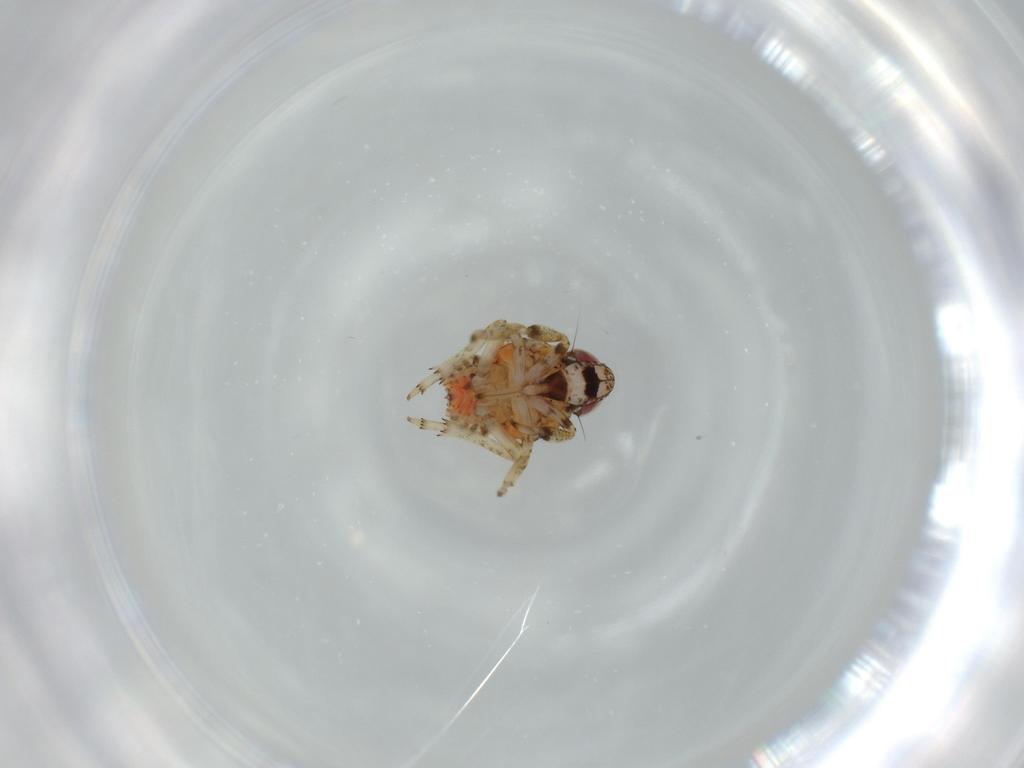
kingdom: Animalia
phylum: Arthropoda
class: Insecta
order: Hemiptera
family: Issidae
